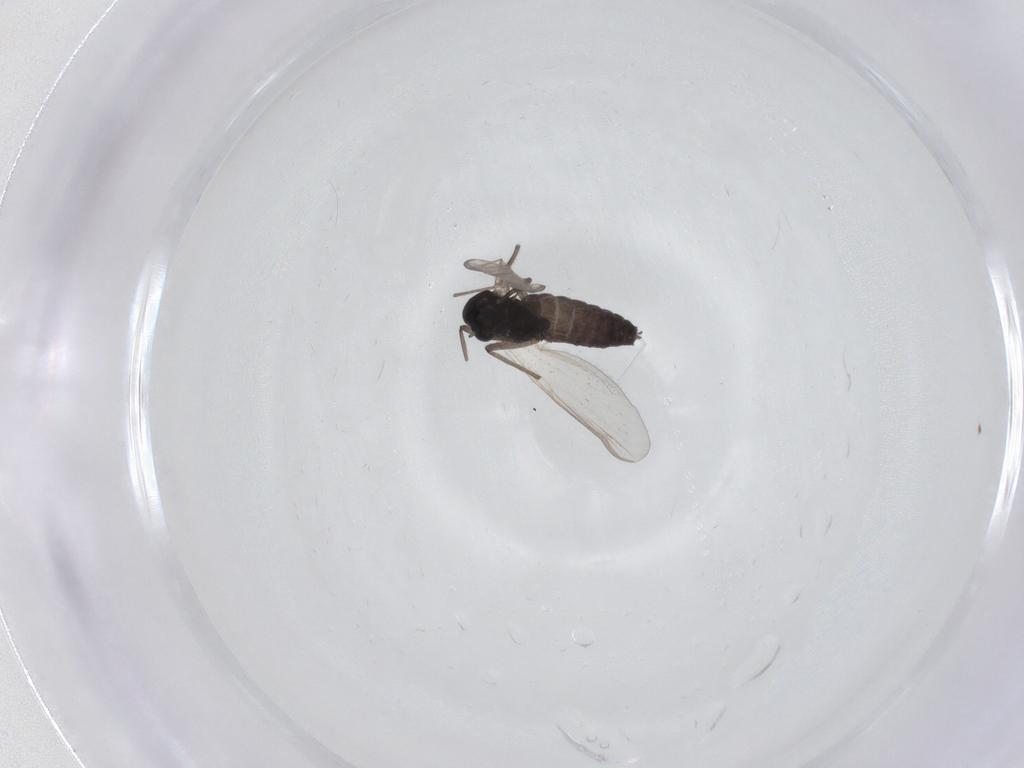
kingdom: Animalia
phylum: Arthropoda
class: Insecta
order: Diptera
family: Chironomidae
